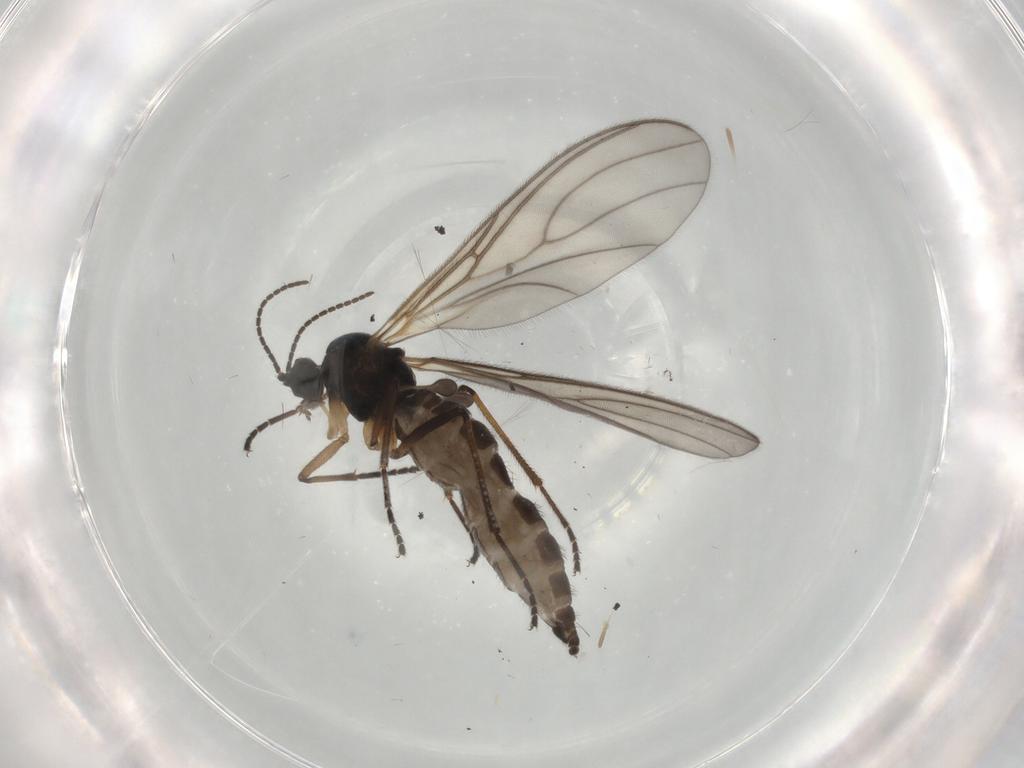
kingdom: Animalia
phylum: Arthropoda
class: Insecta
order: Diptera
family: Sciaridae
